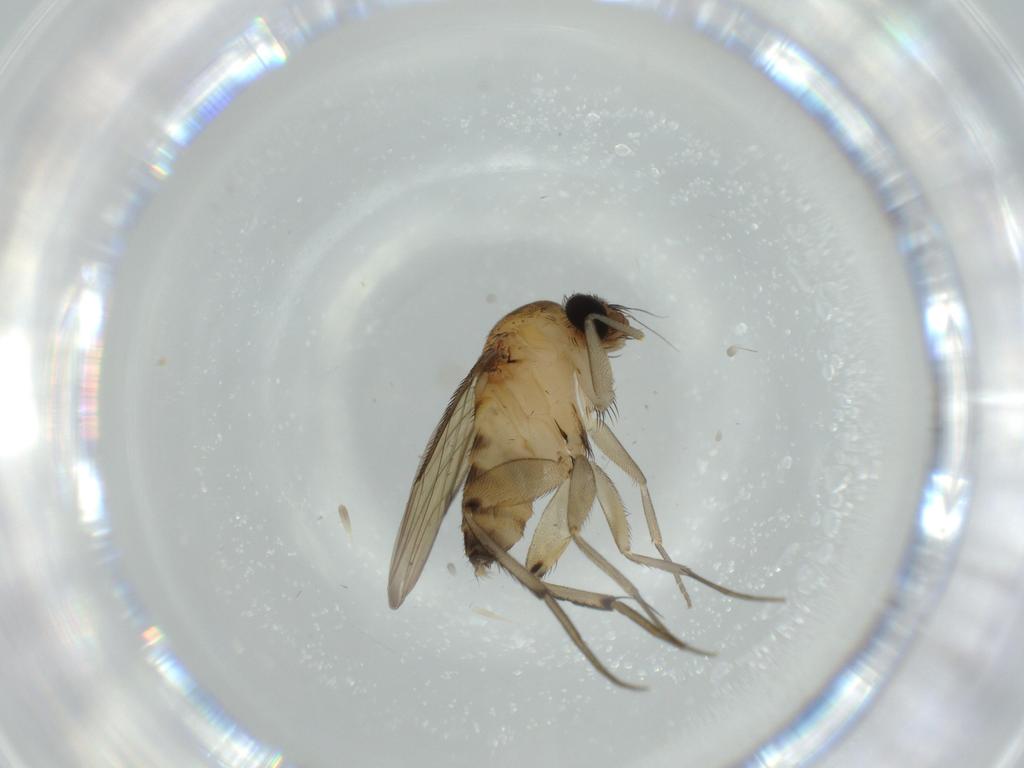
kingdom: Animalia
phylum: Arthropoda
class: Insecta
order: Diptera
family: Phoridae
